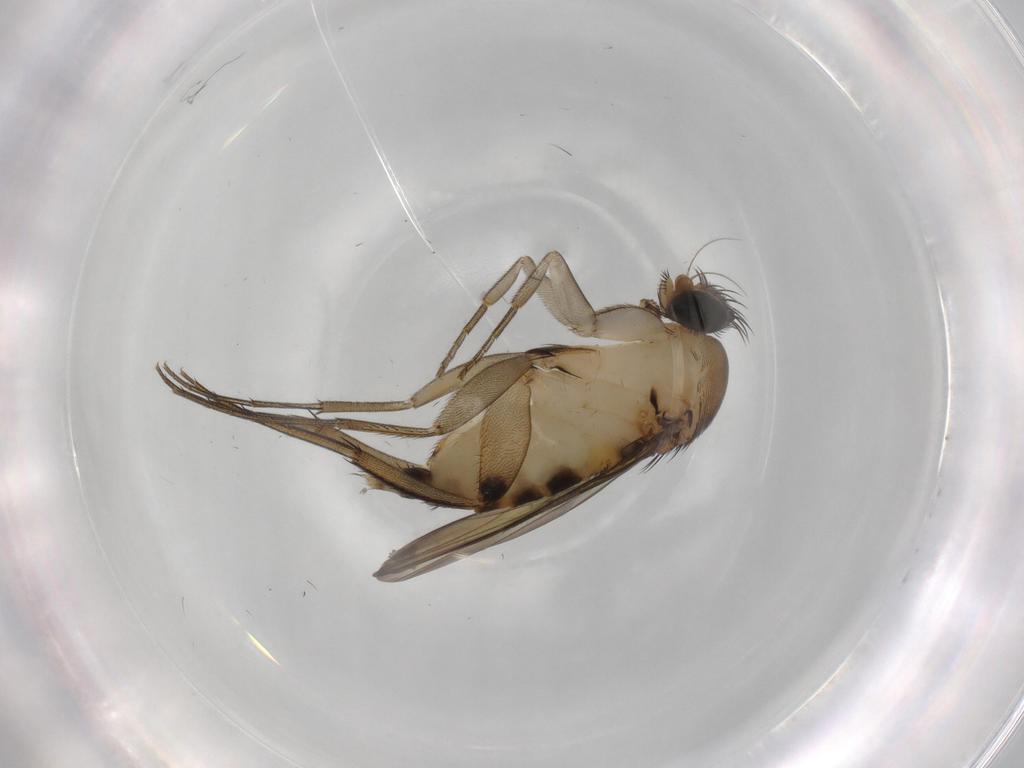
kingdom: Animalia
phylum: Arthropoda
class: Insecta
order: Diptera
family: Phoridae
